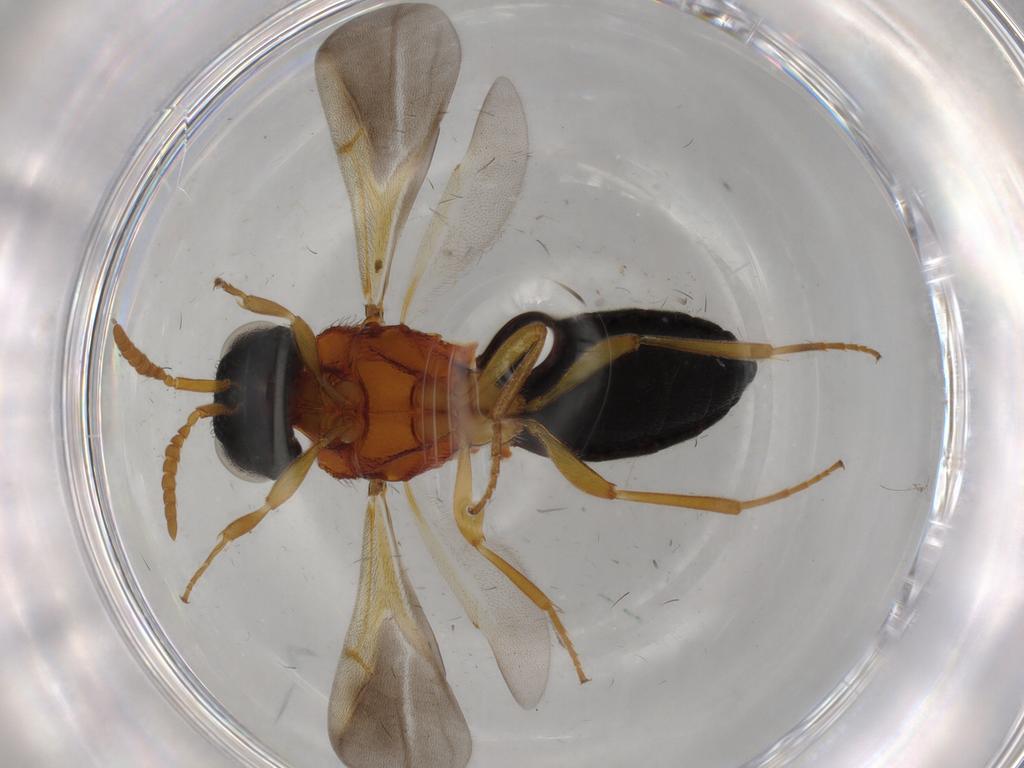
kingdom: Animalia
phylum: Arthropoda
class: Insecta
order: Hymenoptera
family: Scelionidae
